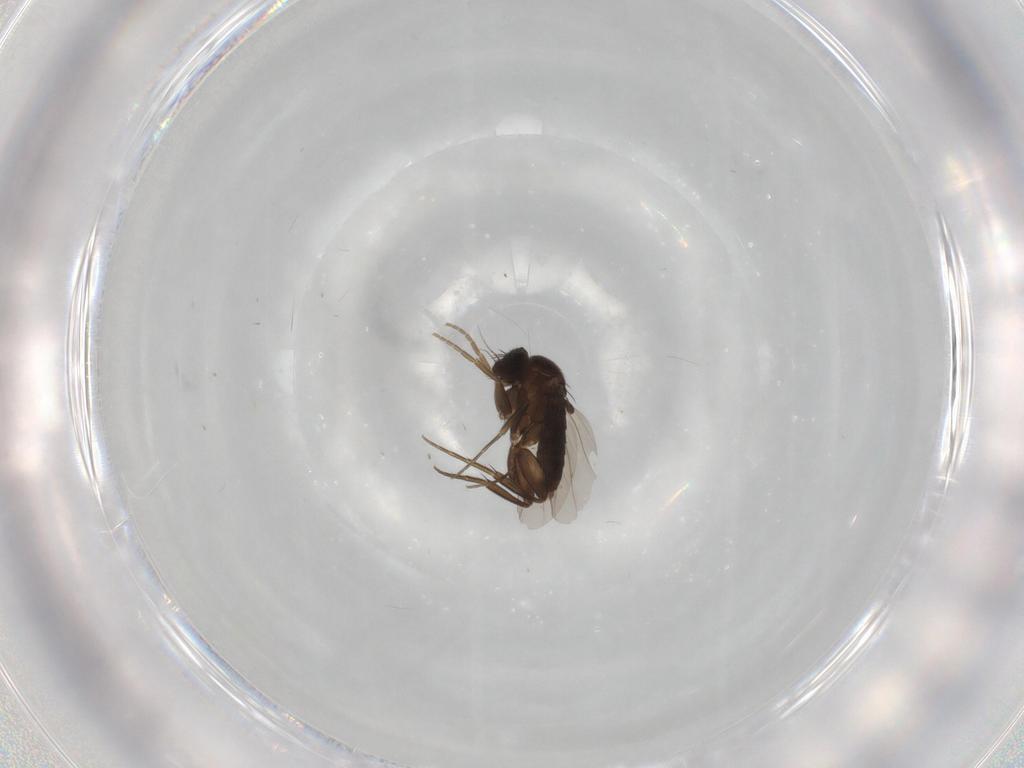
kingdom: Animalia
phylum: Arthropoda
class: Insecta
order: Diptera
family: Phoridae
